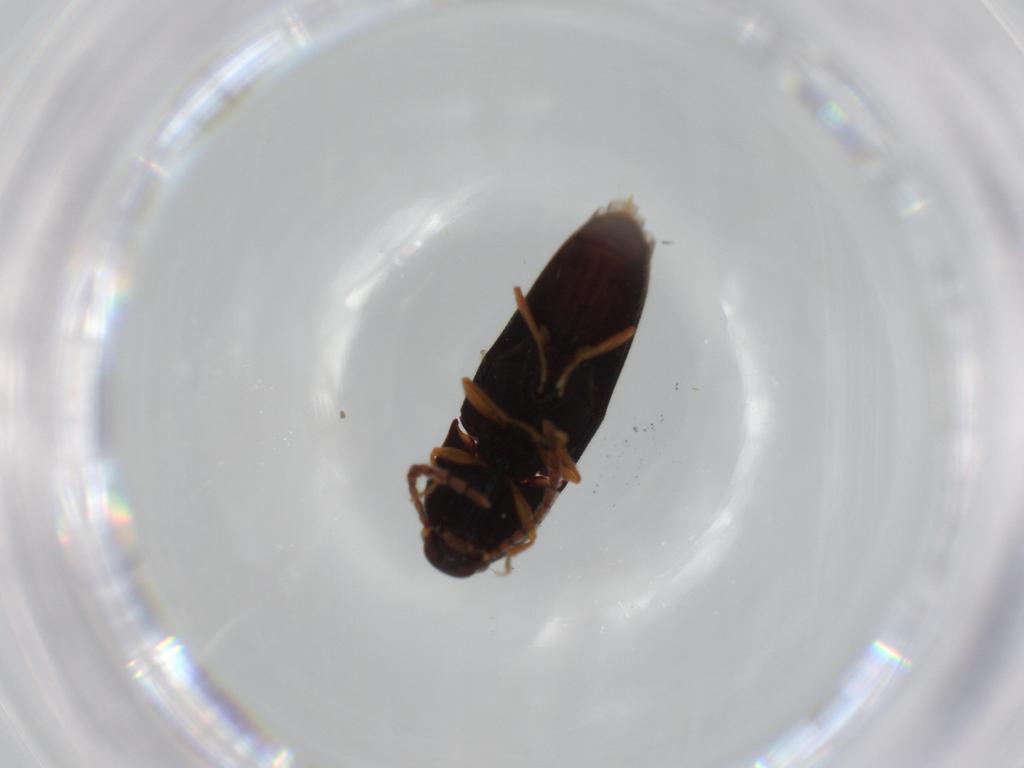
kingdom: Animalia
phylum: Arthropoda
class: Insecta
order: Coleoptera
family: Elateridae
